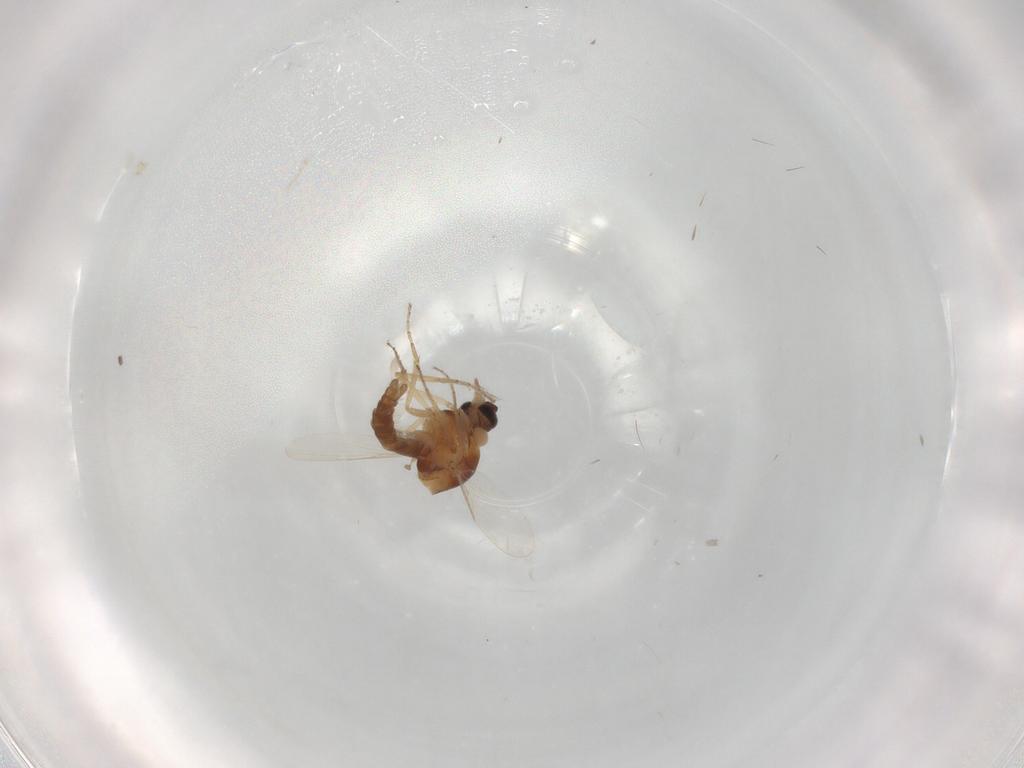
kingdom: Animalia
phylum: Arthropoda
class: Insecta
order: Diptera
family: Ceratopogonidae
